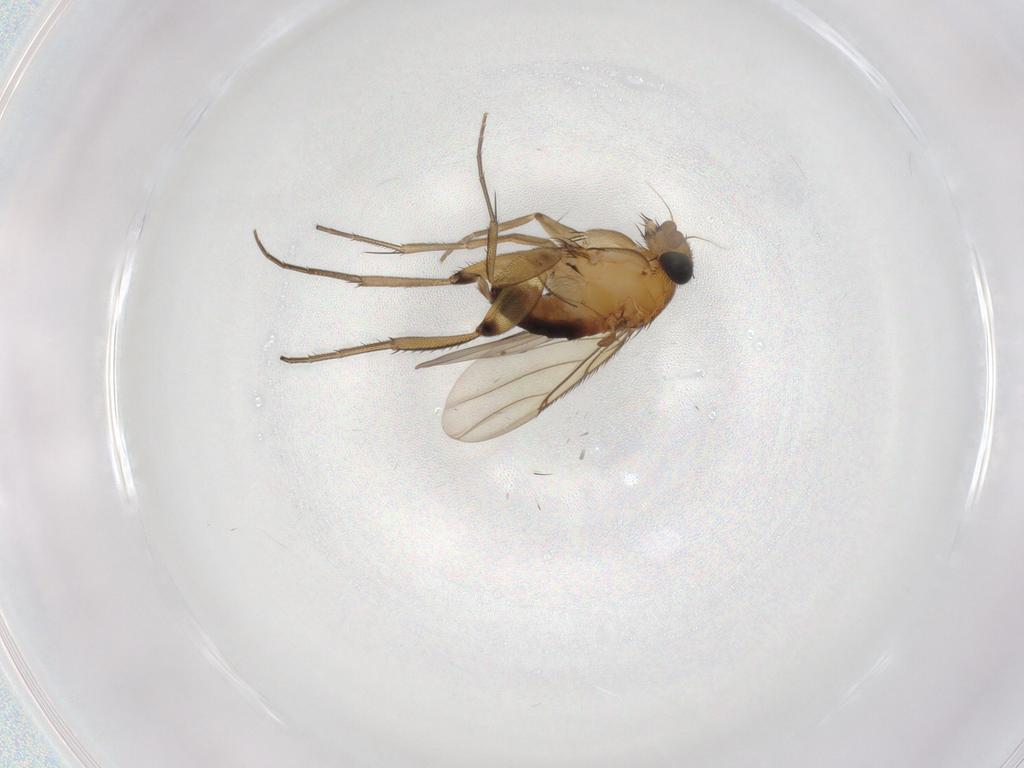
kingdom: Animalia
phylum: Arthropoda
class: Insecta
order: Diptera
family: Phoridae
